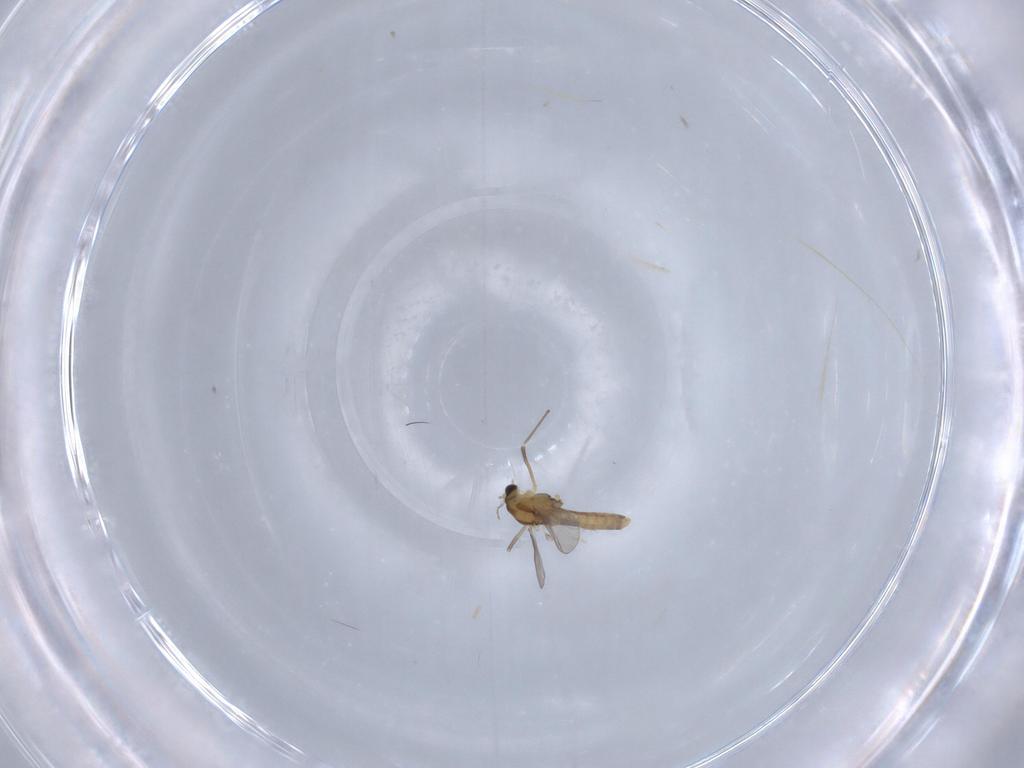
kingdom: Animalia
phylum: Arthropoda
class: Insecta
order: Diptera
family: Chironomidae
